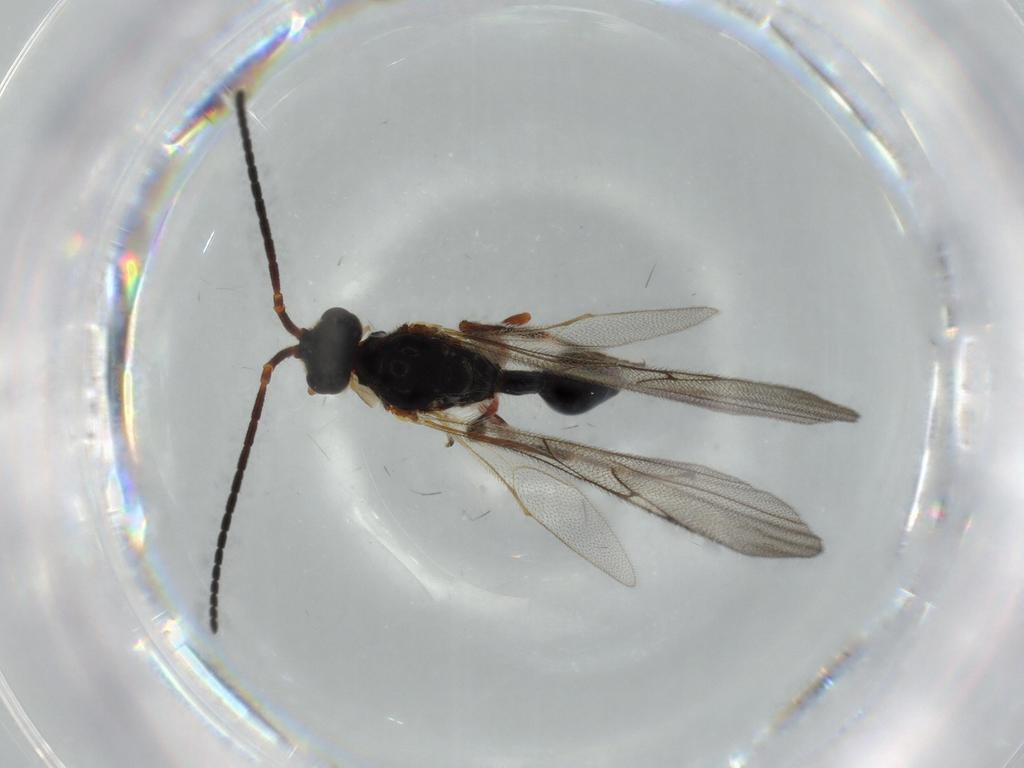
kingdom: Animalia
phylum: Arthropoda
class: Insecta
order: Hymenoptera
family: Diapriidae
